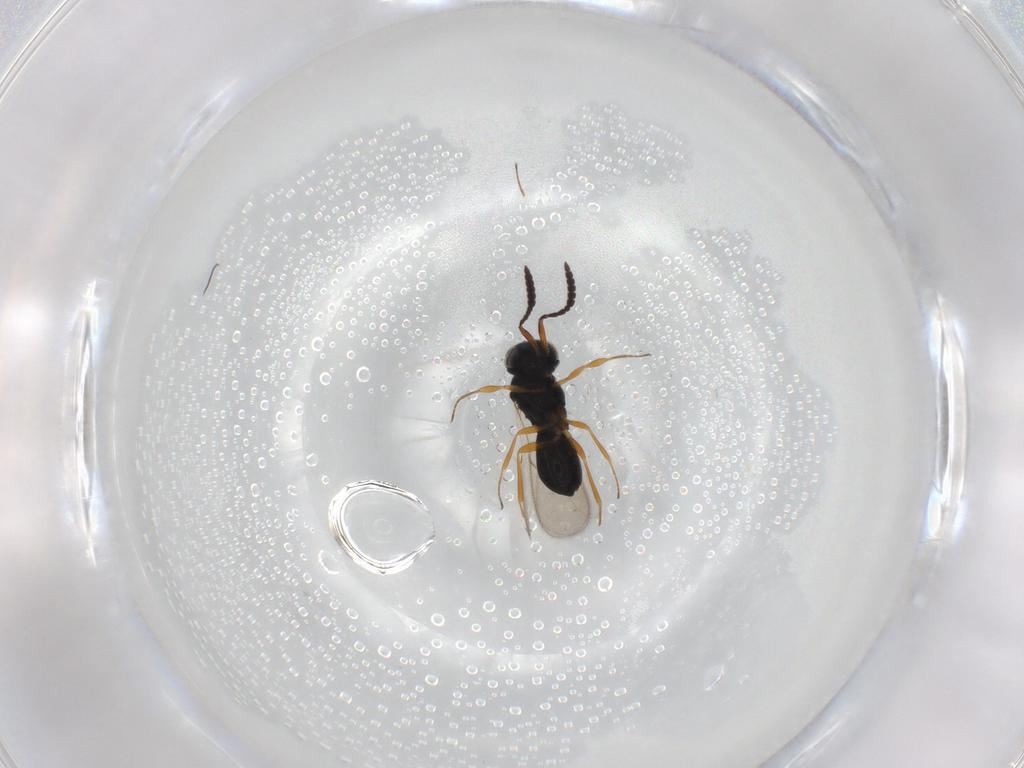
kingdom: Animalia
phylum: Arthropoda
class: Insecta
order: Hymenoptera
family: Scelionidae
